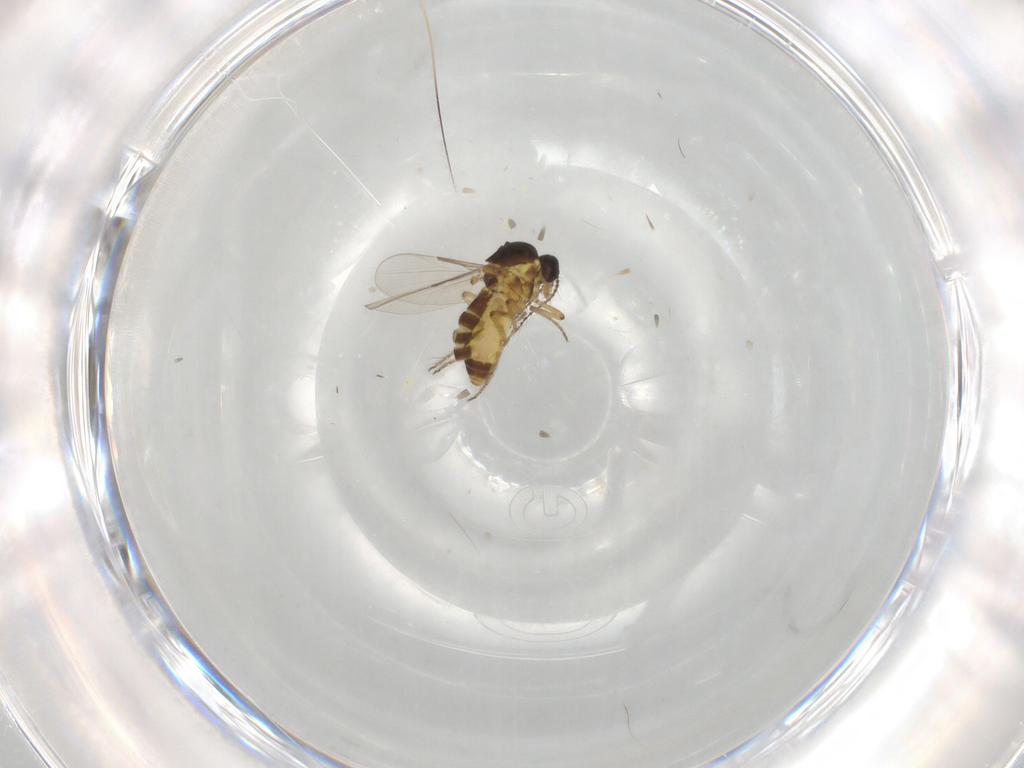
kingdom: Animalia
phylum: Arthropoda
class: Insecta
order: Diptera
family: Ceratopogonidae
